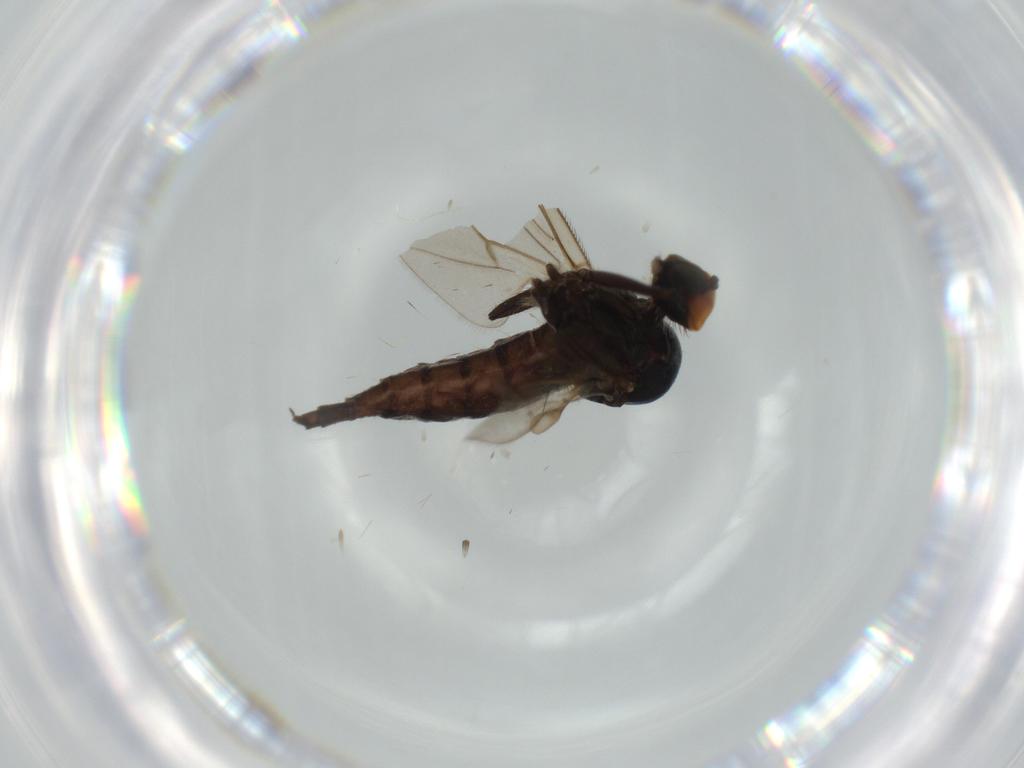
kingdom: Animalia
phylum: Arthropoda
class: Insecta
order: Diptera
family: Hybotidae
